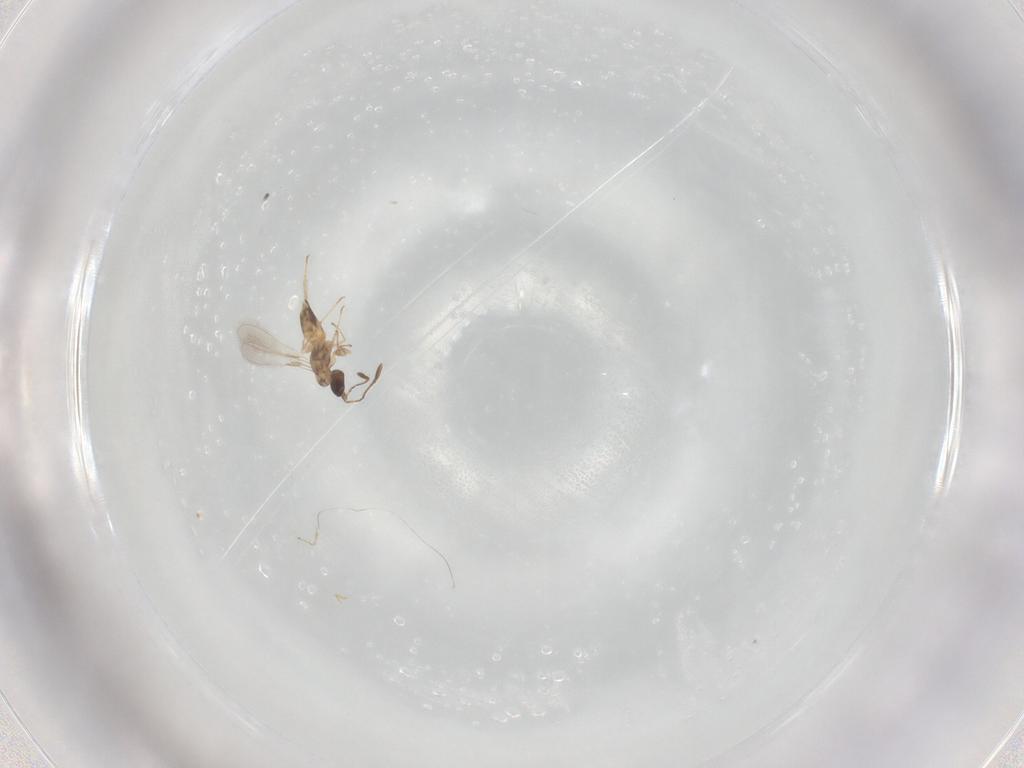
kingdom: Animalia
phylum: Arthropoda
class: Insecta
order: Hymenoptera
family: Mymaridae
